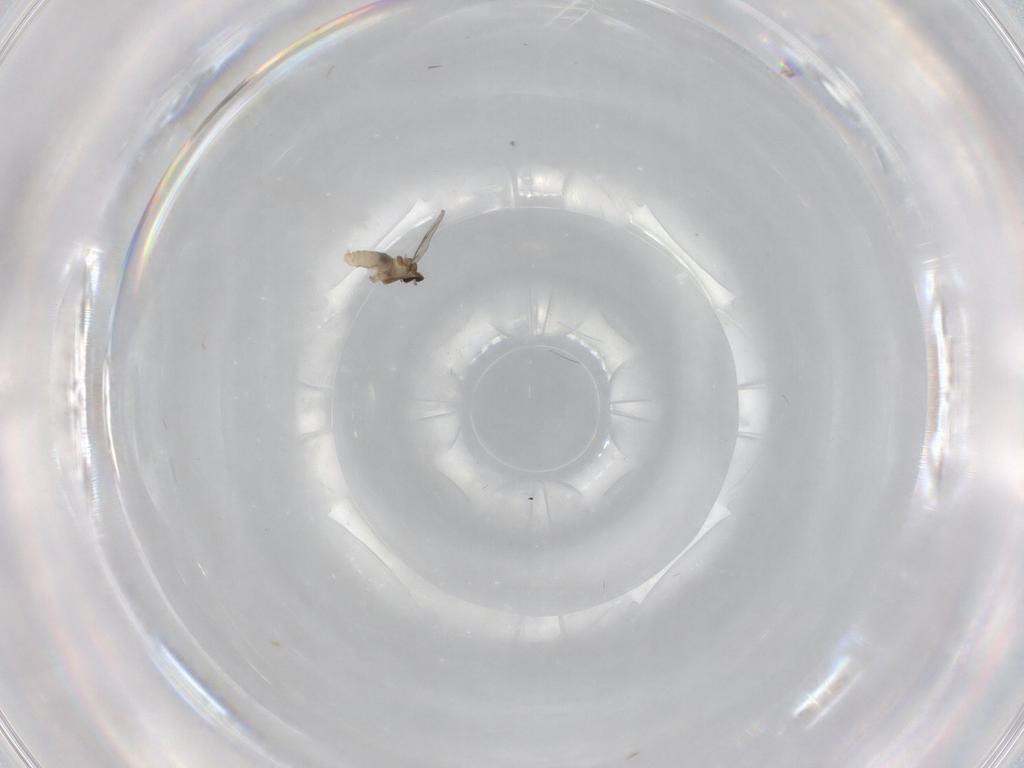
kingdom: Animalia
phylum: Arthropoda
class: Insecta
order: Diptera
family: Cecidomyiidae
